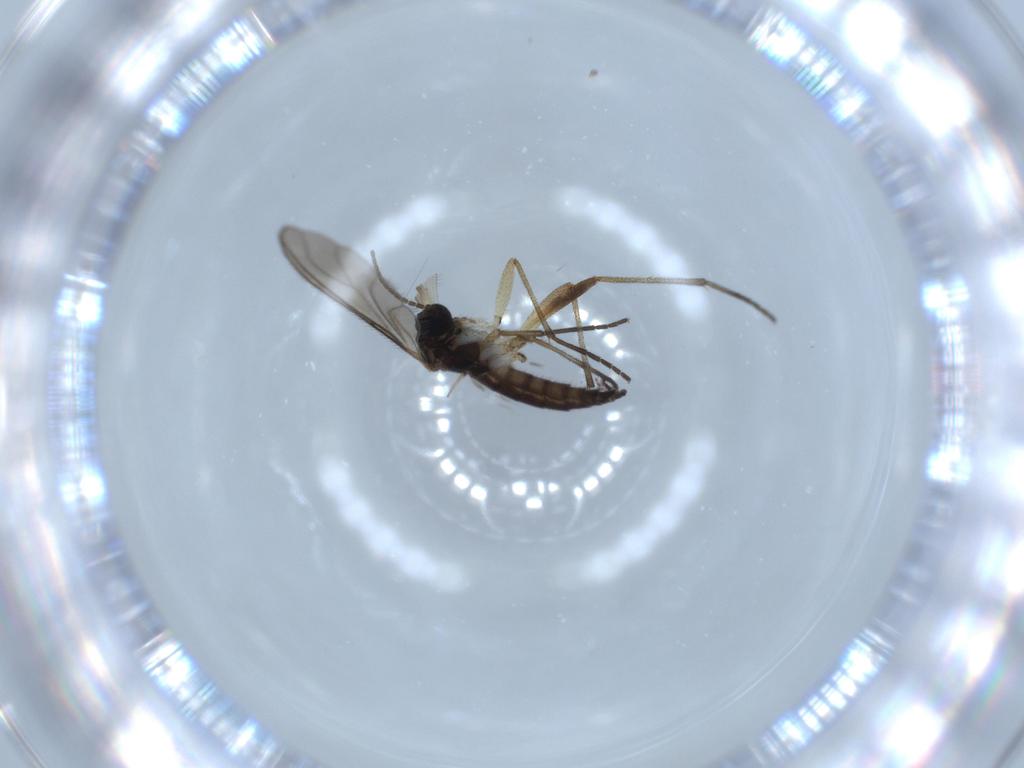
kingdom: Animalia
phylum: Arthropoda
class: Insecta
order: Diptera
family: Sciaridae
